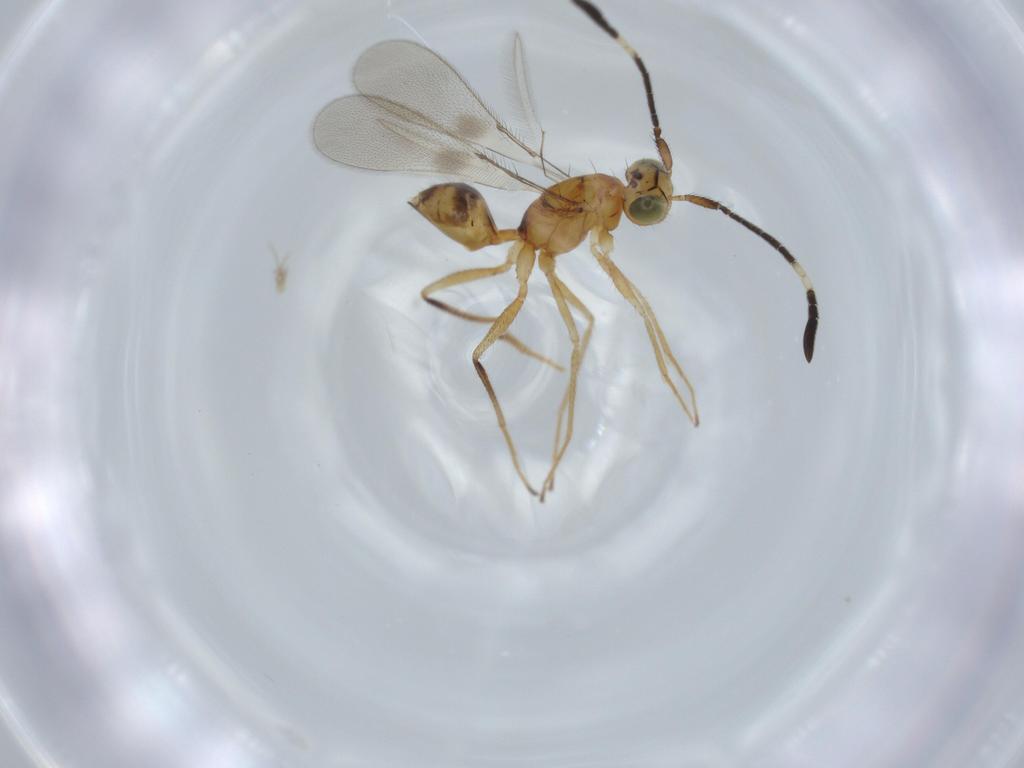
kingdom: Animalia
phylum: Arthropoda
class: Insecta
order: Hymenoptera
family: Mymaridae
